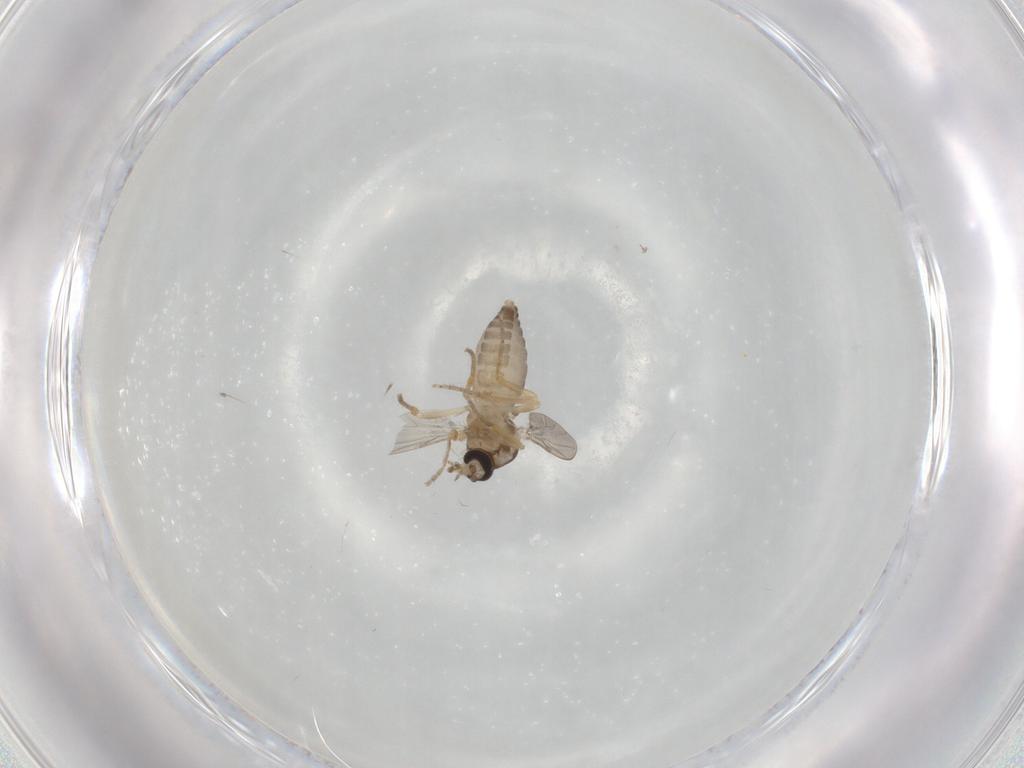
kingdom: Animalia
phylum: Arthropoda
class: Insecta
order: Diptera
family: Ceratopogonidae
